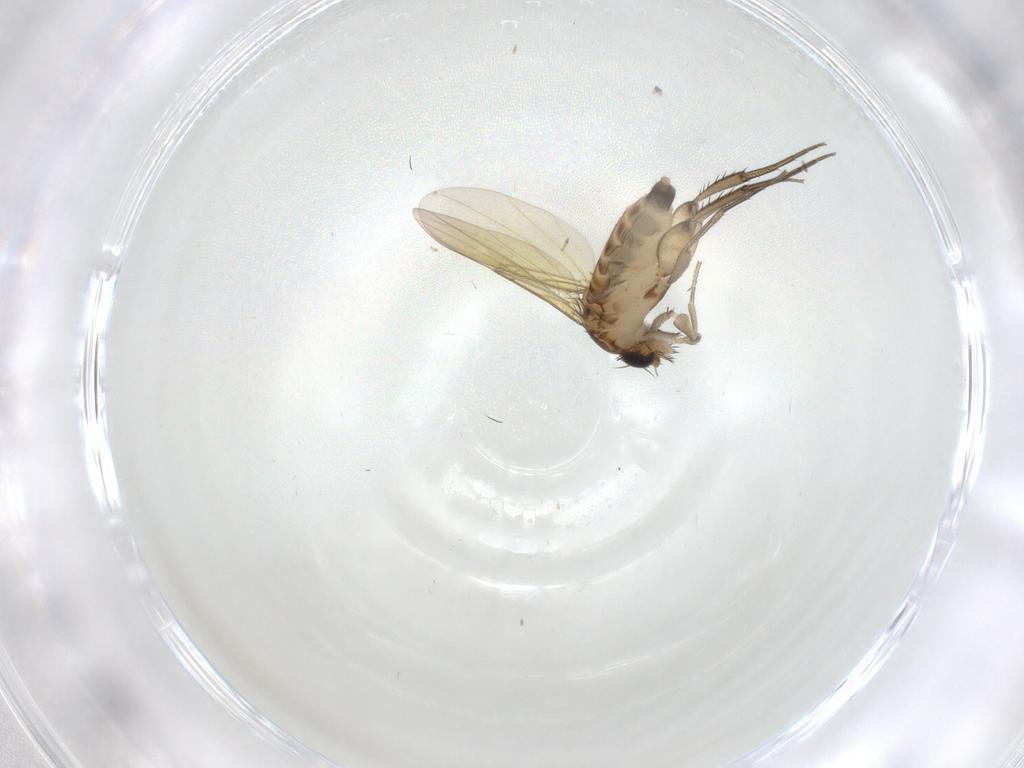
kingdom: Animalia
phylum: Arthropoda
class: Insecta
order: Diptera
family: Phoridae
